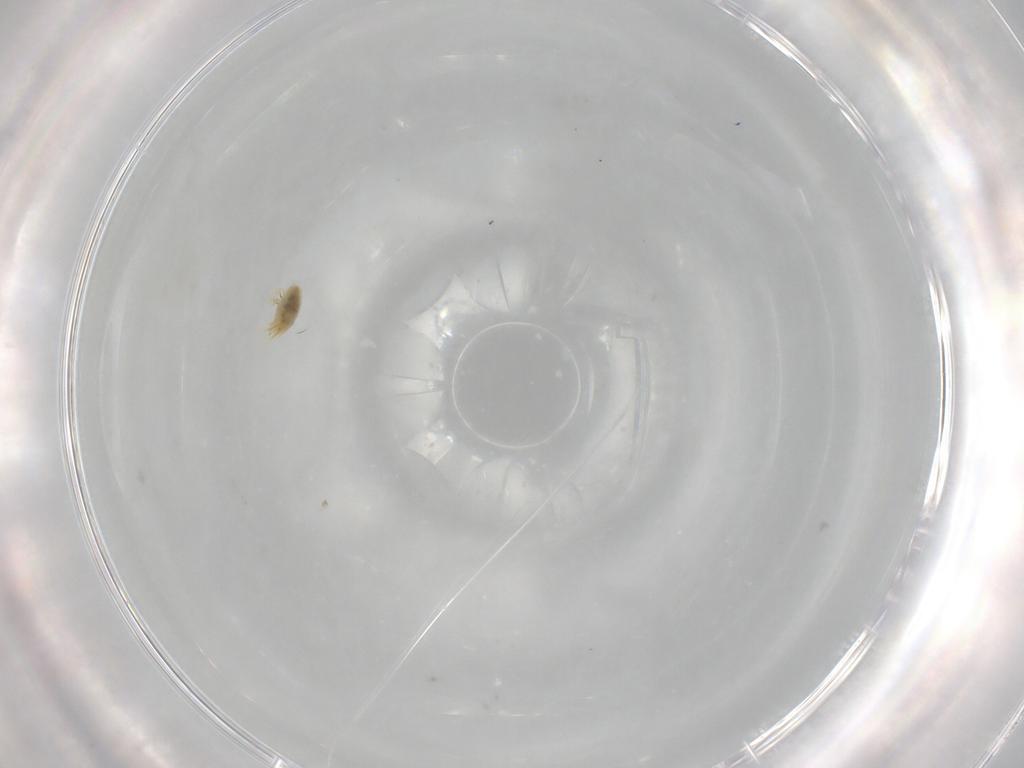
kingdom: Animalia
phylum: Arthropoda
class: Arachnida
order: Trombidiformes
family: Tetranychidae
